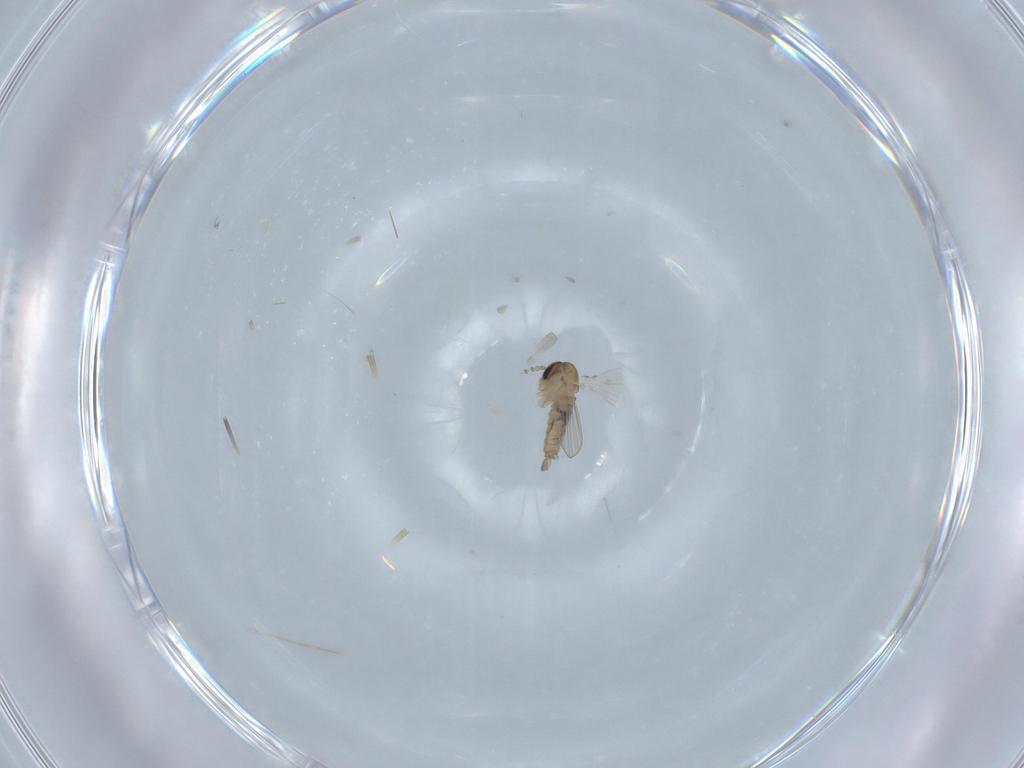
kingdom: Animalia
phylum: Arthropoda
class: Insecta
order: Diptera
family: Psychodidae
